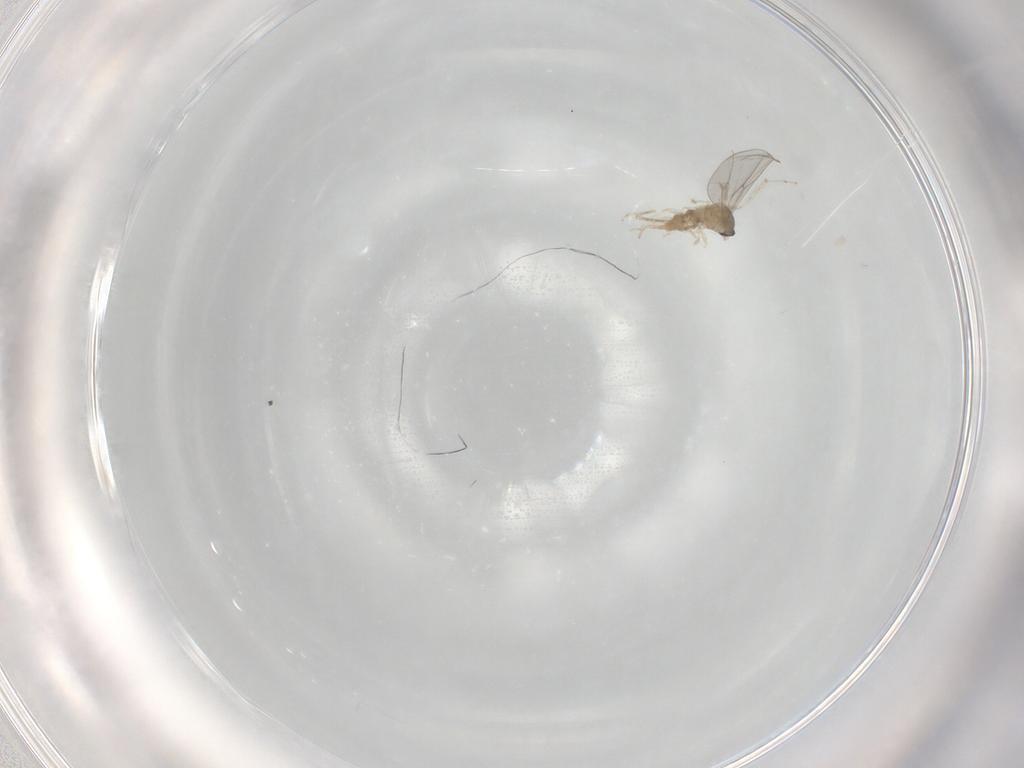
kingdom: Animalia
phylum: Arthropoda
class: Insecta
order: Diptera
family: Cecidomyiidae
